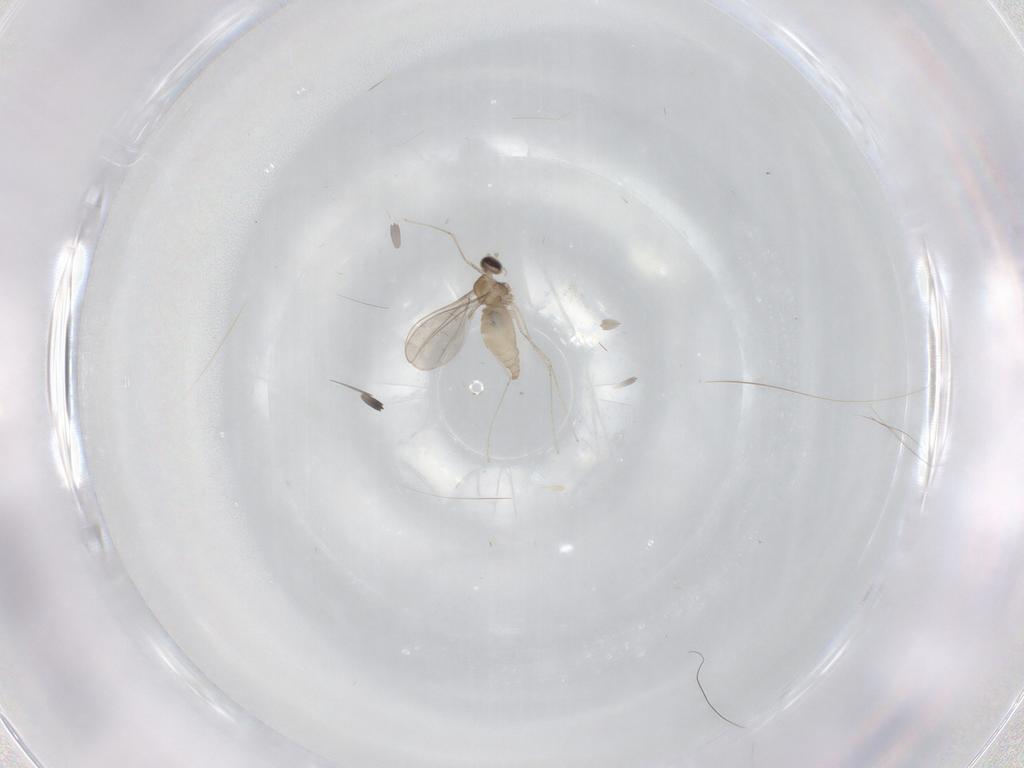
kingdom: Animalia
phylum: Arthropoda
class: Insecta
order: Diptera
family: Cecidomyiidae
